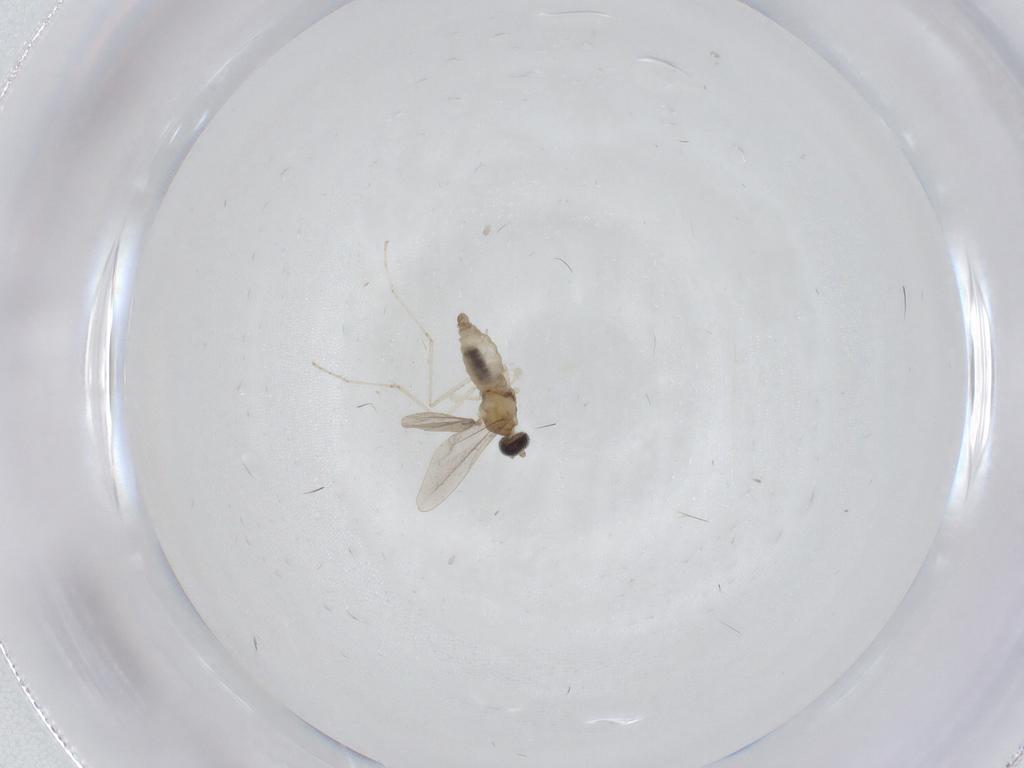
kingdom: Animalia
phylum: Arthropoda
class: Insecta
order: Diptera
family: Cecidomyiidae
